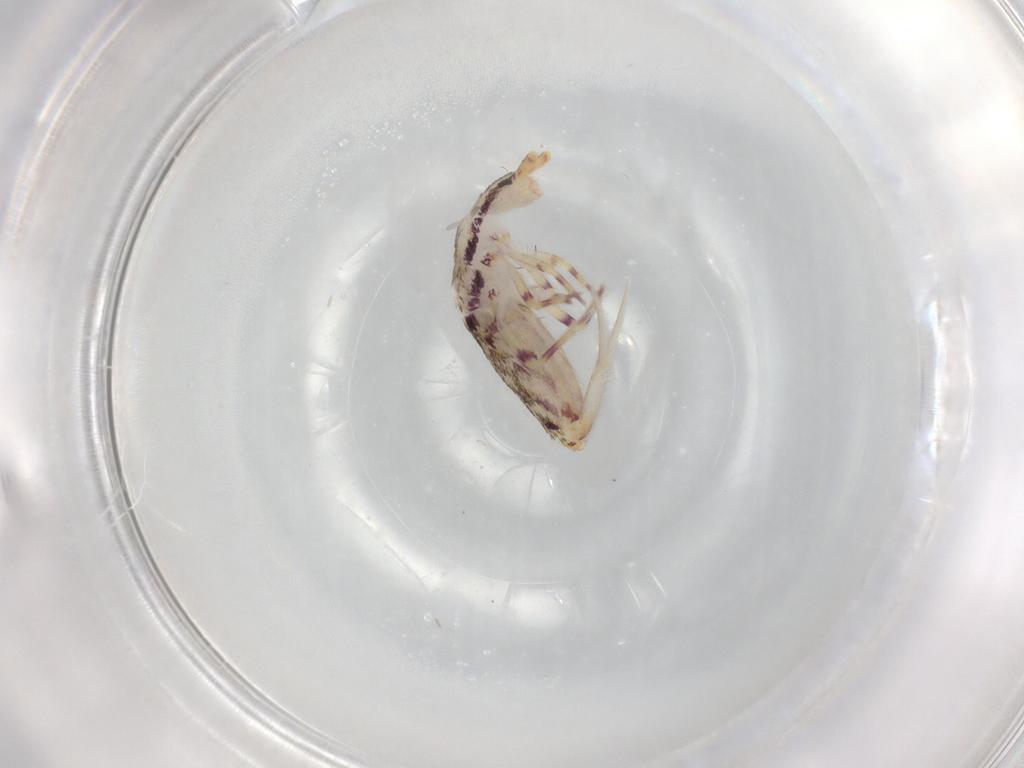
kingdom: Animalia
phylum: Arthropoda
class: Collembola
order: Entomobryomorpha
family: Entomobryidae
